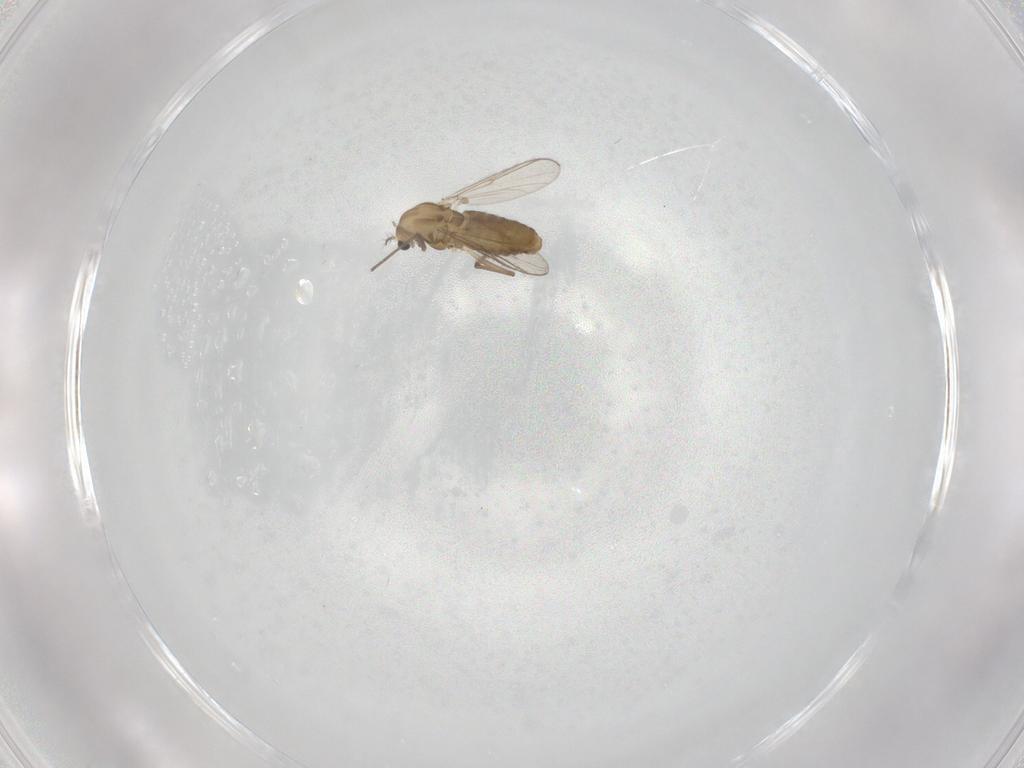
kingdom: Animalia
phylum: Arthropoda
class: Insecta
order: Diptera
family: Chironomidae
